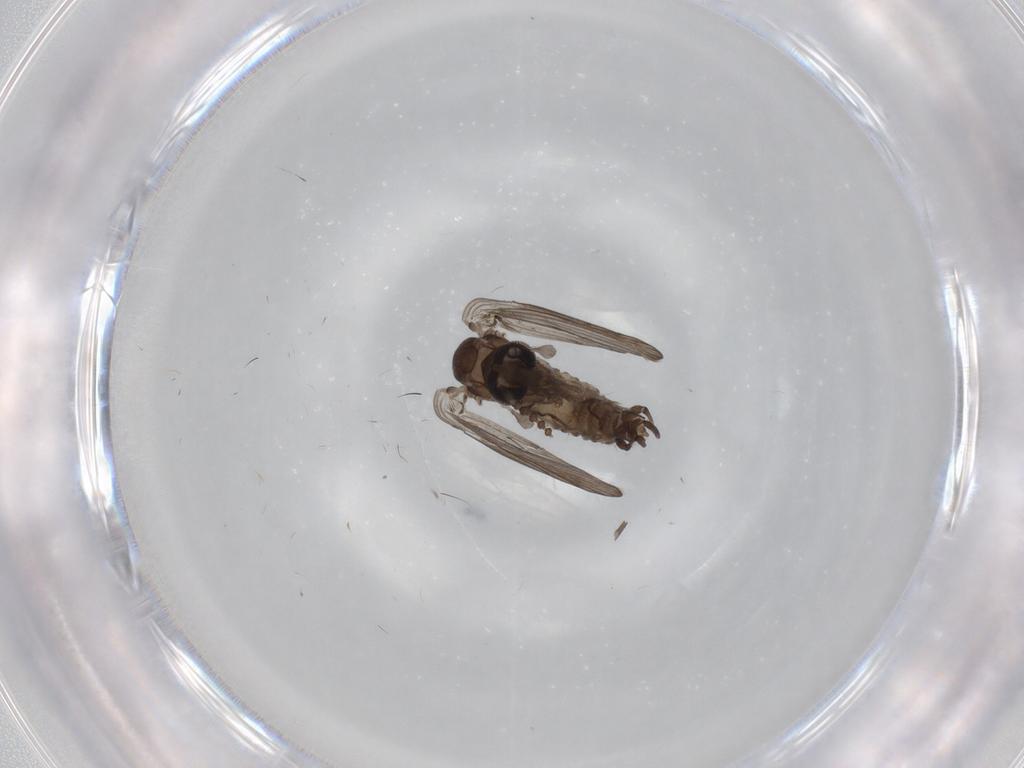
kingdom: Animalia
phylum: Arthropoda
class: Insecta
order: Diptera
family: Psychodidae
